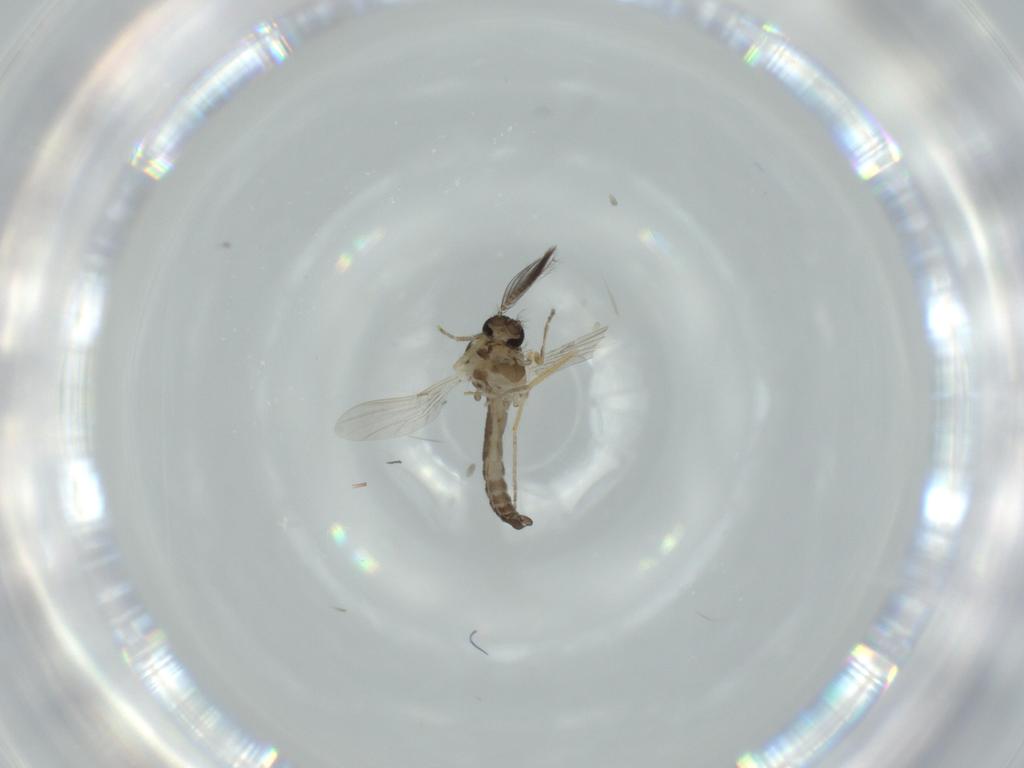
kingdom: Animalia
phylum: Arthropoda
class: Insecta
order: Diptera
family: Ceratopogonidae
